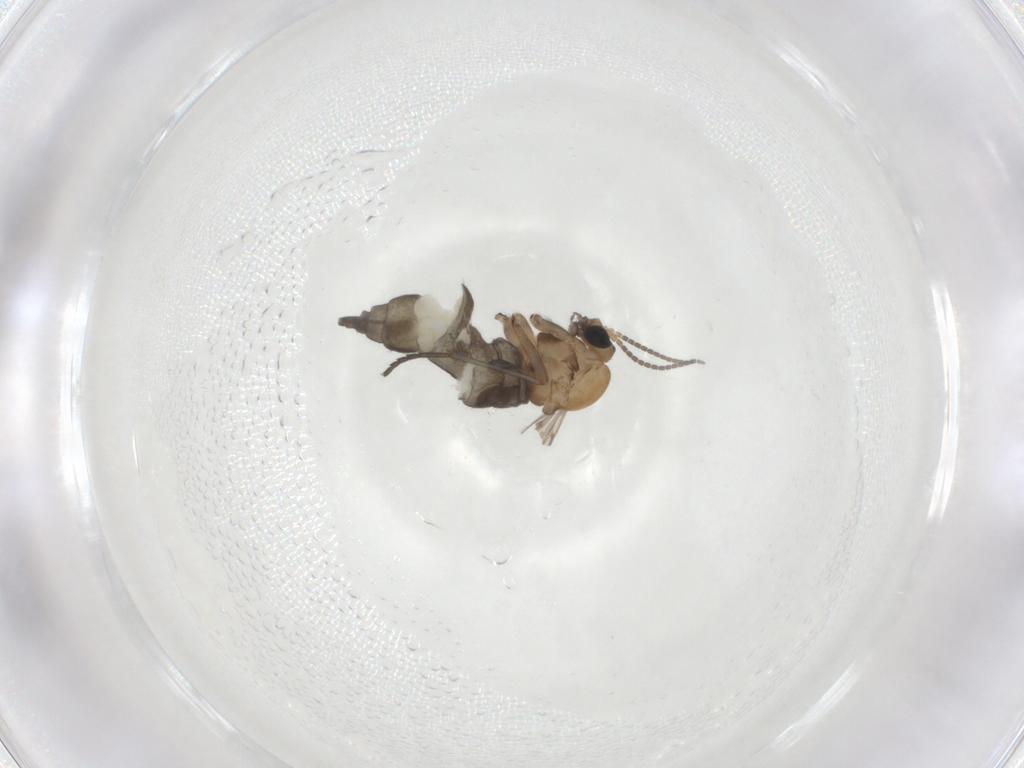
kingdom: Animalia
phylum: Arthropoda
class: Insecta
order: Diptera
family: Sciaridae
